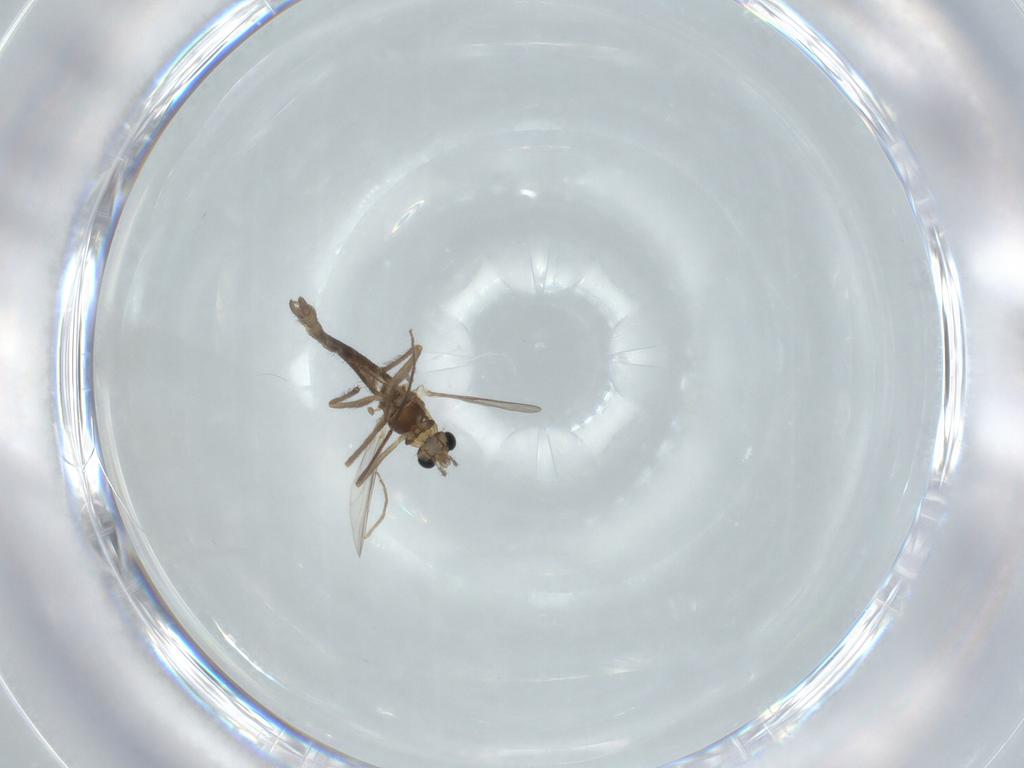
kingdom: Animalia
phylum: Arthropoda
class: Insecta
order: Diptera
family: Chironomidae
